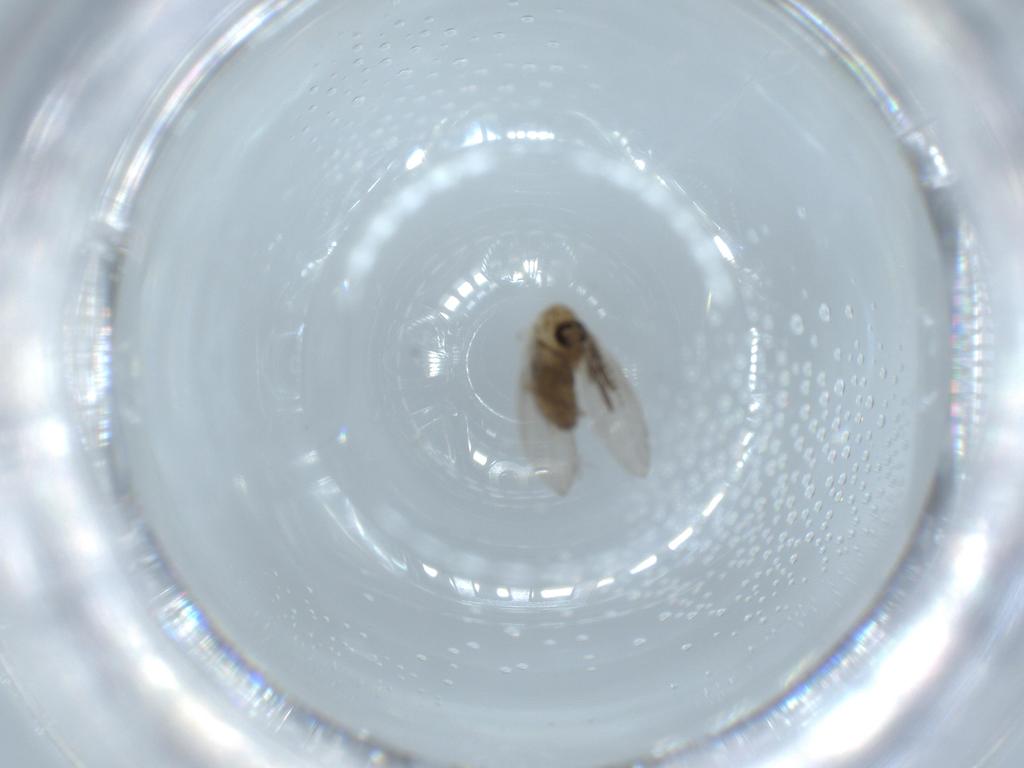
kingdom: Animalia
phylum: Arthropoda
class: Insecta
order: Diptera
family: Psychodidae
